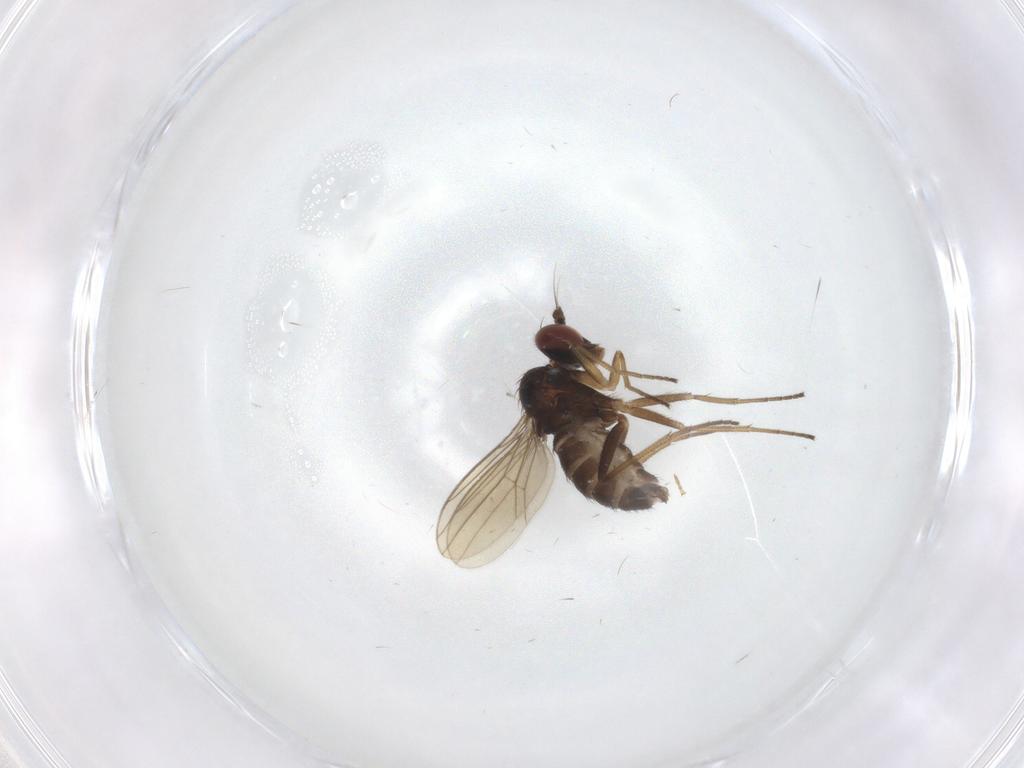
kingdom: Animalia
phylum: Arthropoda
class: Insecta
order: Diptera
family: Dolichopodidae
